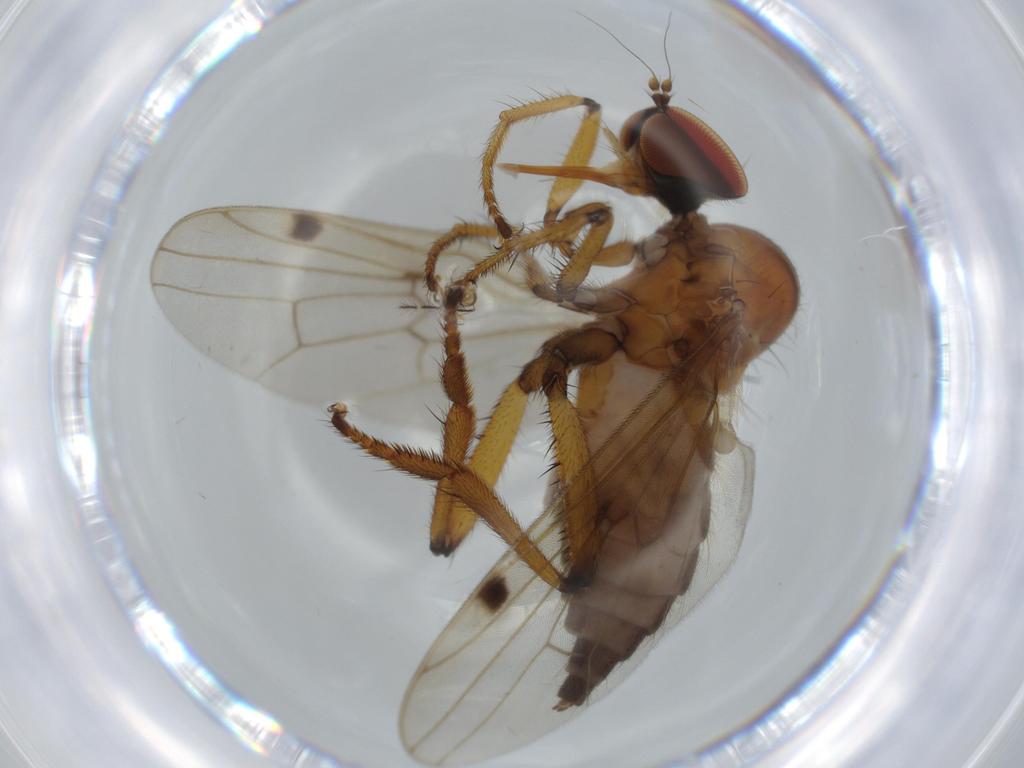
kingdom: Animalia
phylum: Arthropoda
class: Insecta
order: Diptera
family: Hybotidae
